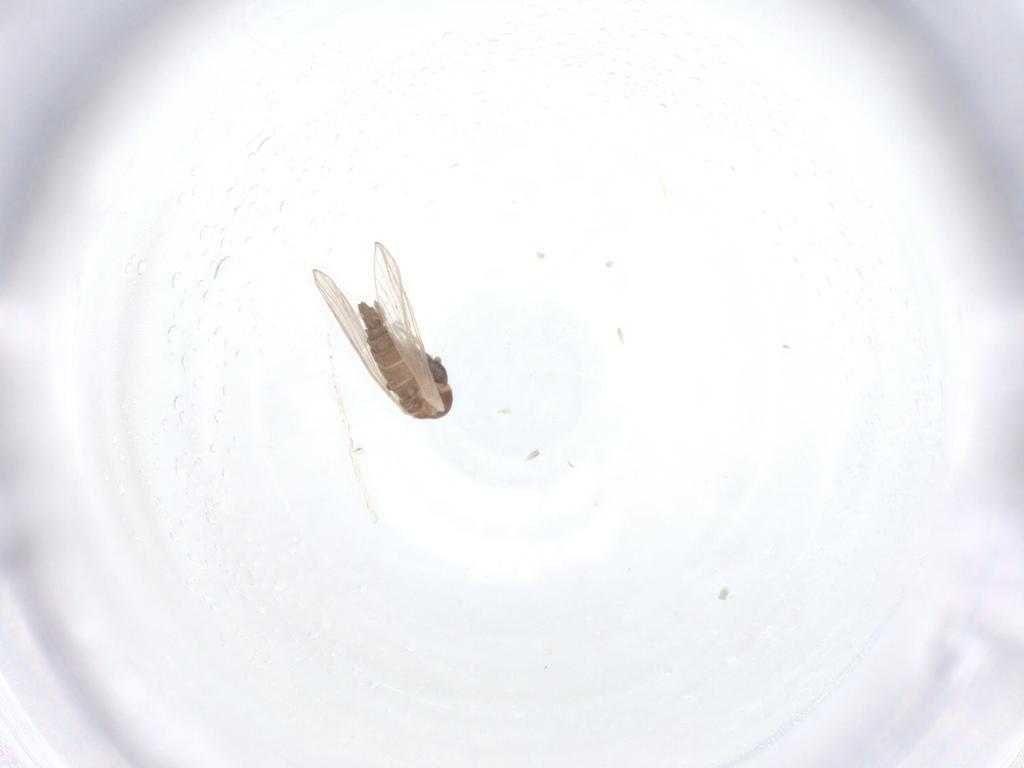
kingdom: Animalia
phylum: Arthropoda
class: Insecta
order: Diptera
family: Psychodidae
